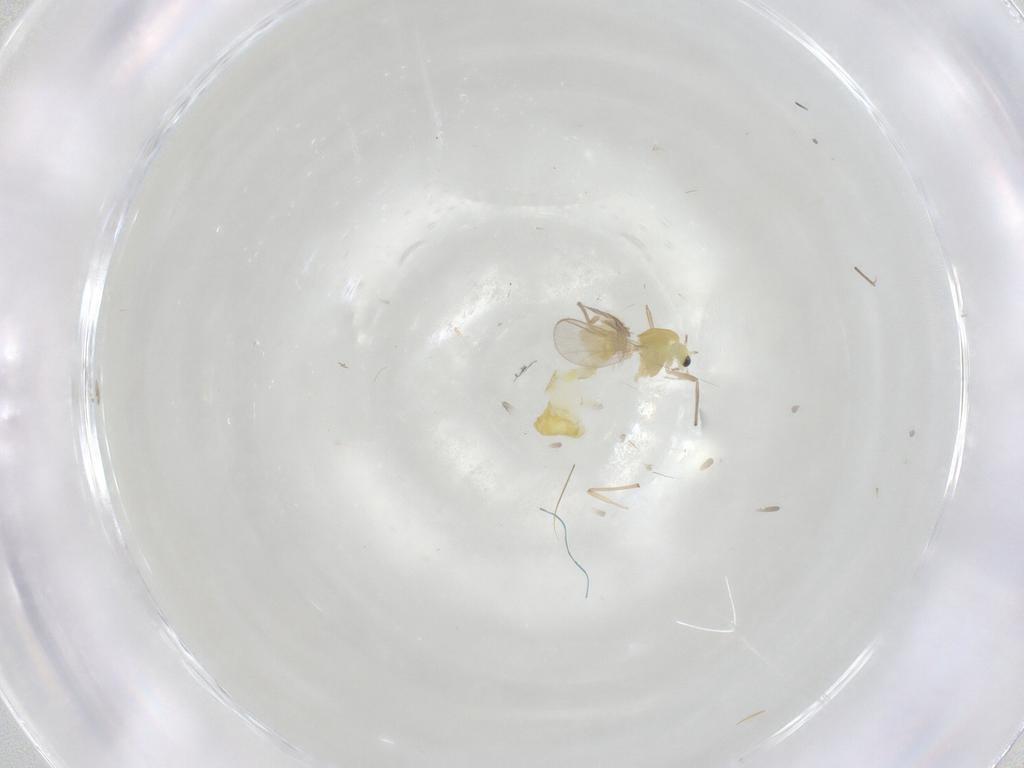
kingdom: Animalia
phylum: Arthropoda
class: Insecta
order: Diptera
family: Chironomidae
